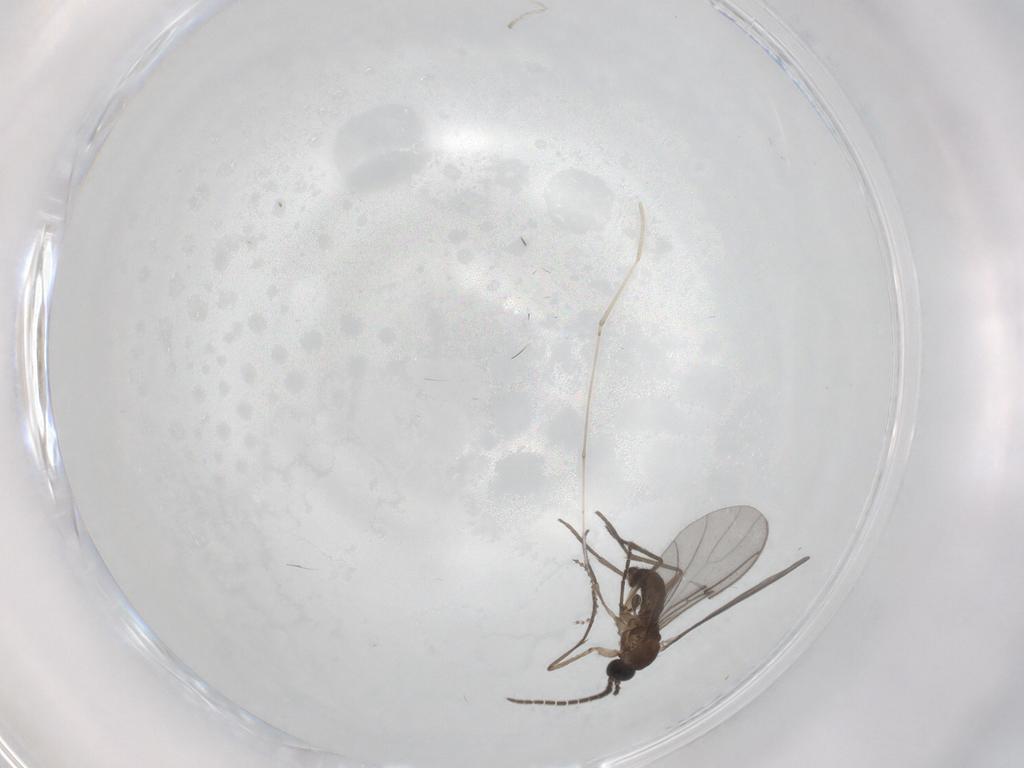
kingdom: Animalia
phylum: Arthropoda
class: Insecta
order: Diptera
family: Sciaridae
